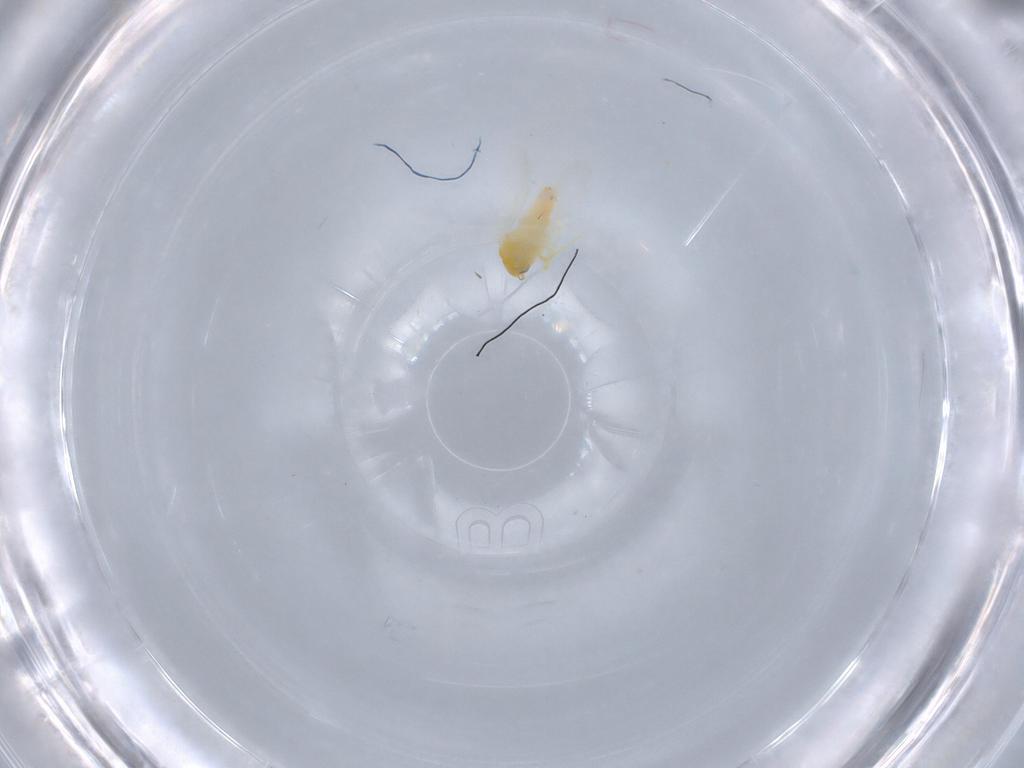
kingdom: Animalia
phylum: Arthropoda
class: Insecta
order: Hemiptera
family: Aleyrodidae
